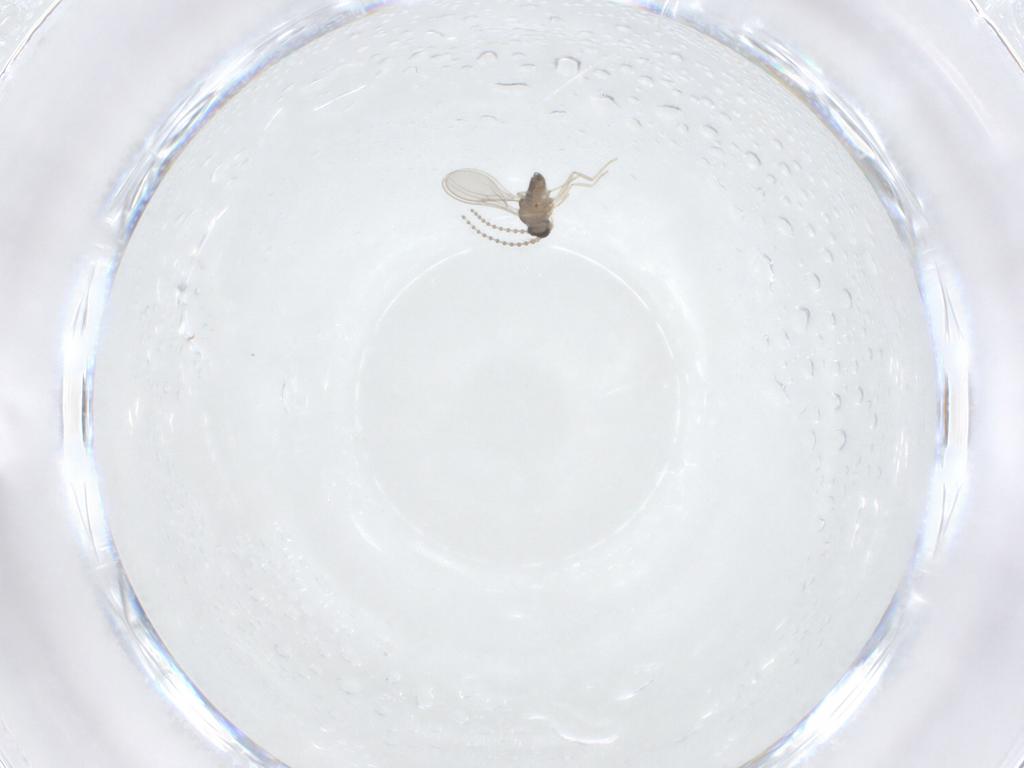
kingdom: Animalia
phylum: Arthropoda
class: Insecta
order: Diptera
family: Cecidomyiidae
